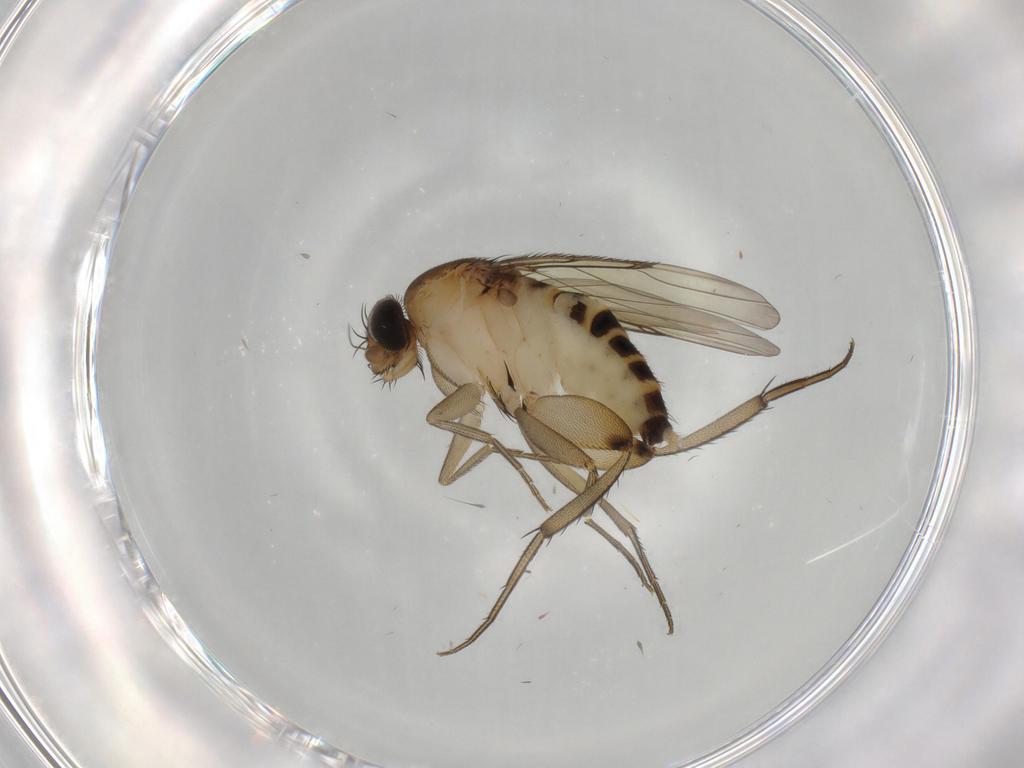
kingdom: Animalia
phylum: Arthropoda
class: Insecta
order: Diptera
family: Phoridae
